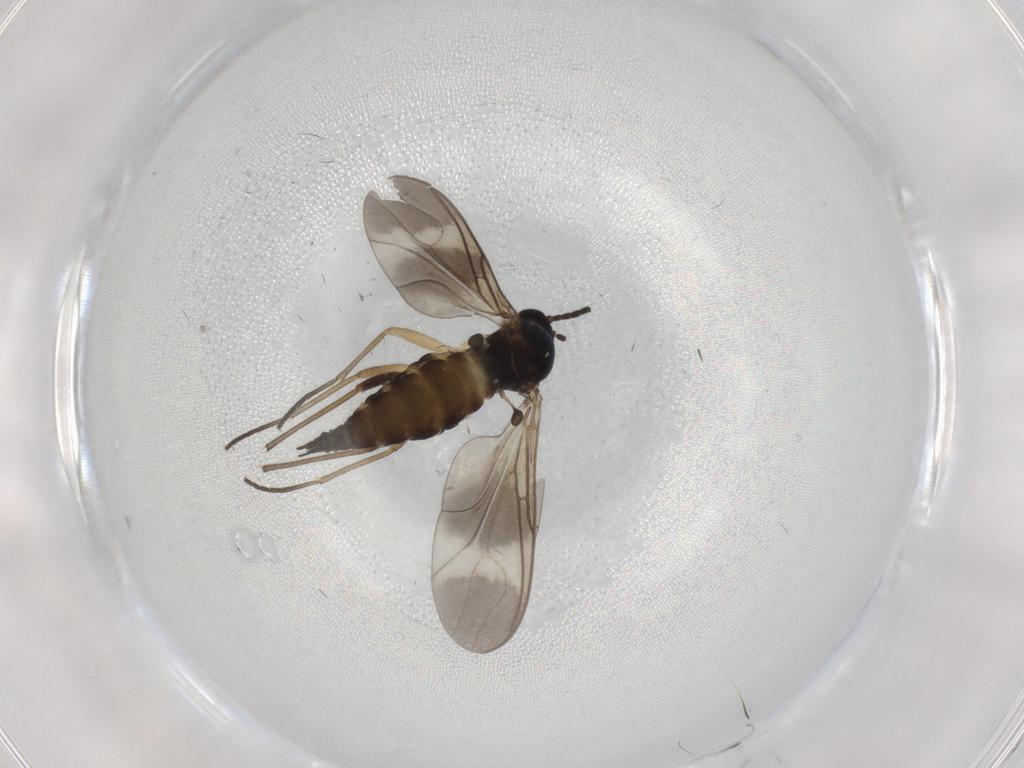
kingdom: Animalia
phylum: Arthropoda
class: Insecta
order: Diptera
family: Sciaridae
